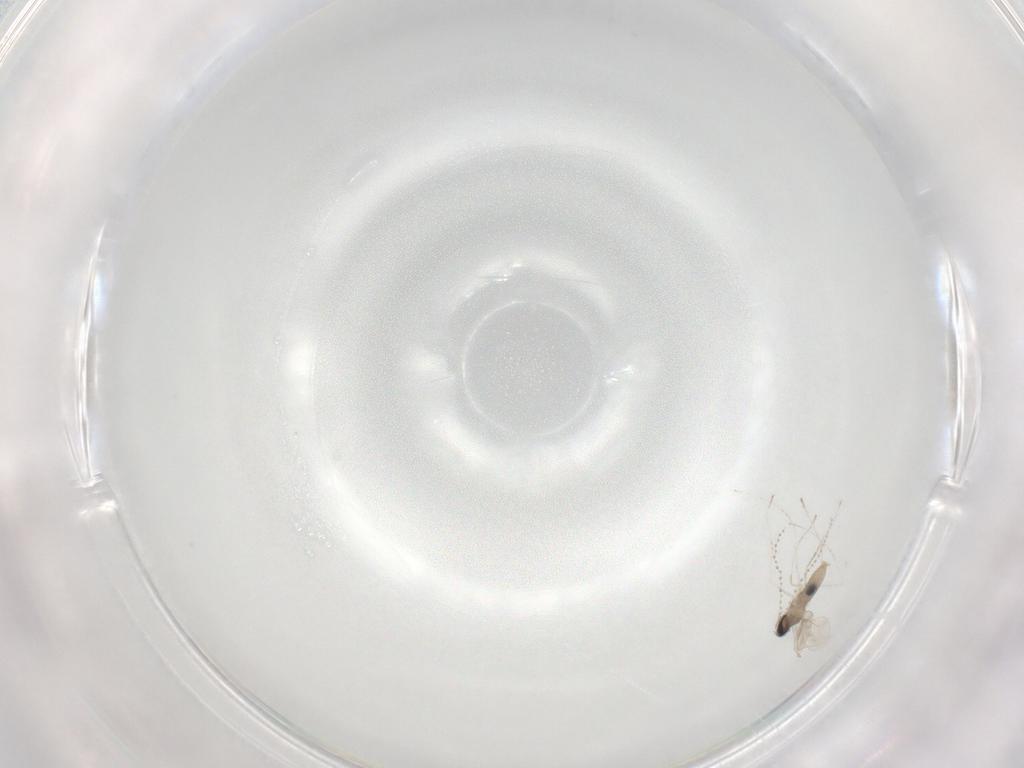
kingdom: Animalia
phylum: Arthropoda
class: Insecta
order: Diptera
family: Cecidomyiidae
